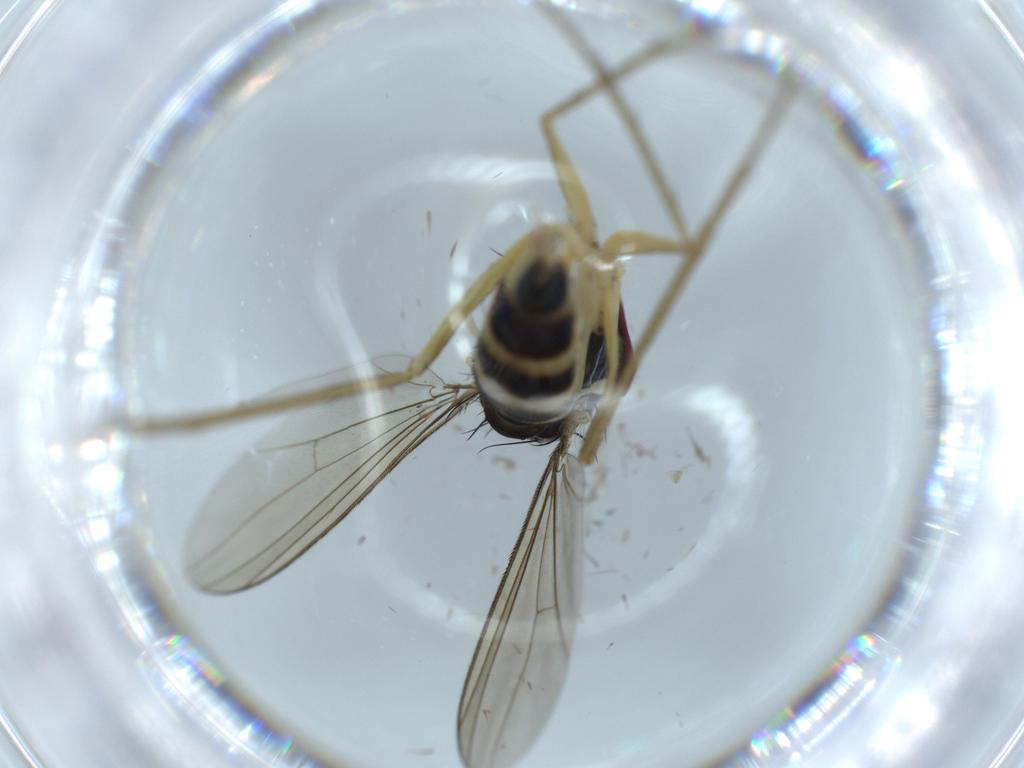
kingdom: Animalia
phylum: Arthropoda
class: Insecta
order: Diptera
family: Dolichopodidae
